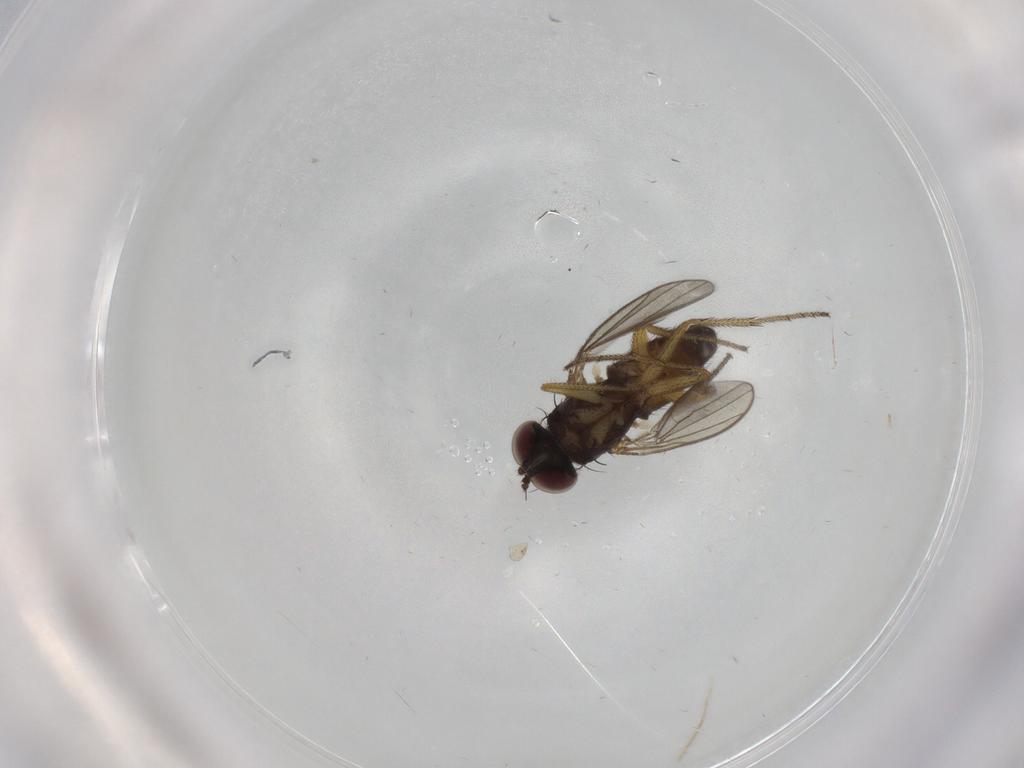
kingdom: Animalia
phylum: Arthropoda
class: Insecta
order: Diptera
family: Dolichopodidae
